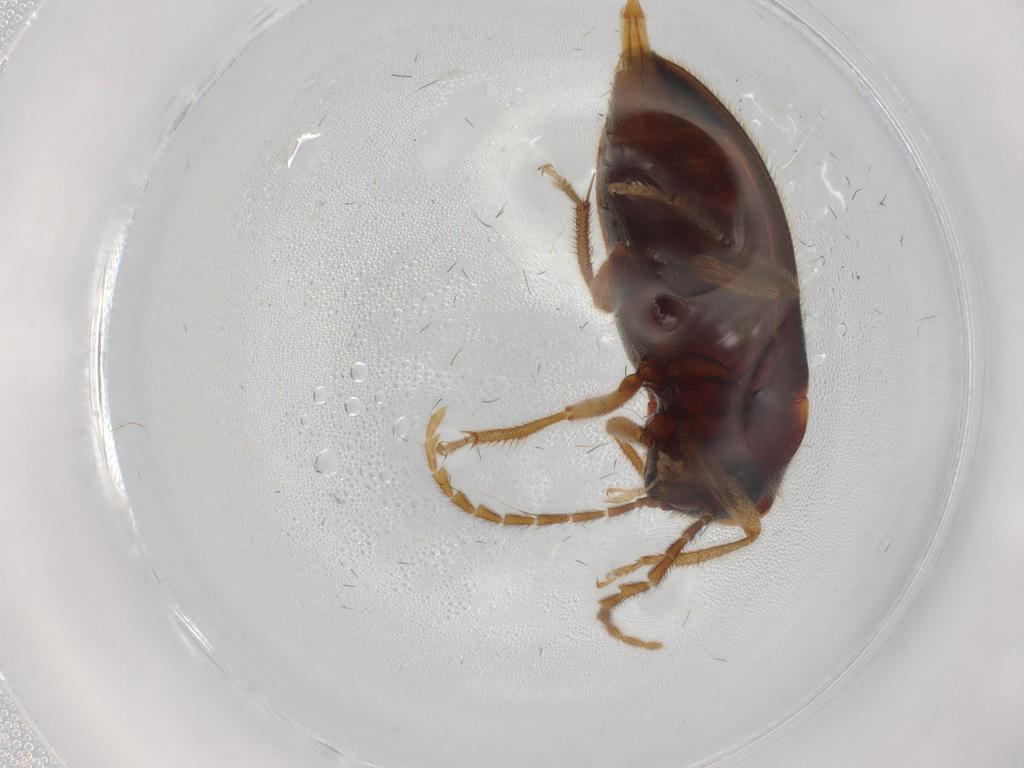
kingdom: Animalia
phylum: Arthropoda
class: Insecta
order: Coleoptera
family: Ptilodactylidae
